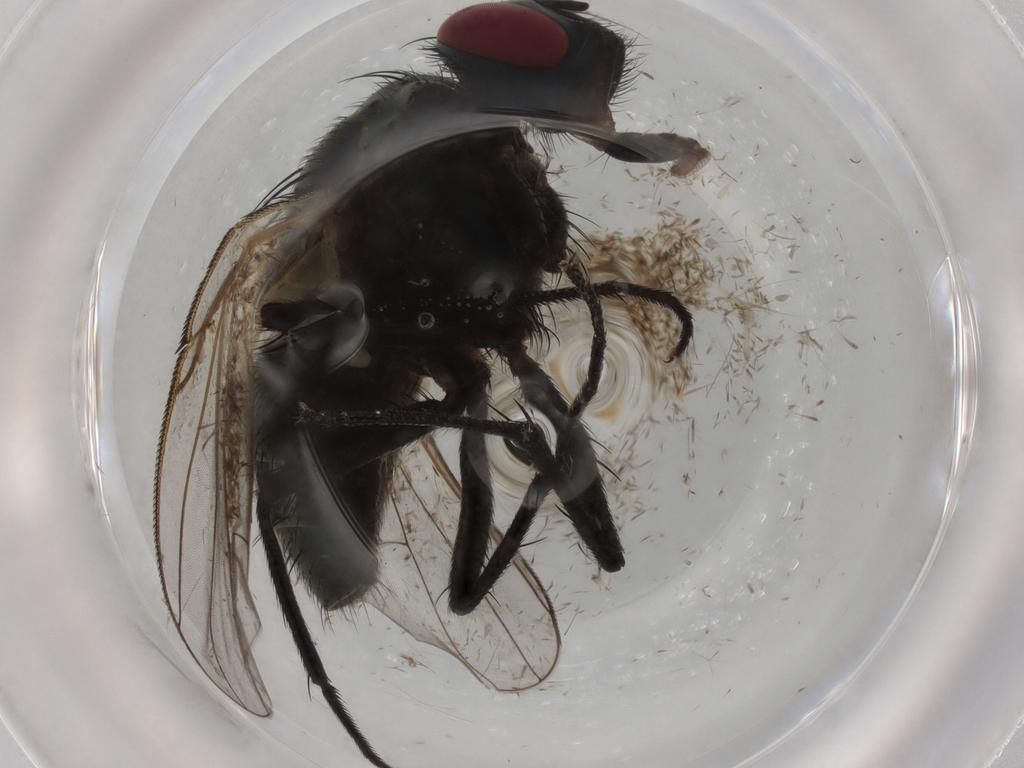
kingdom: Animalia
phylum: Arthropoda
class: Insecta
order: Diptera
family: Muscidae
